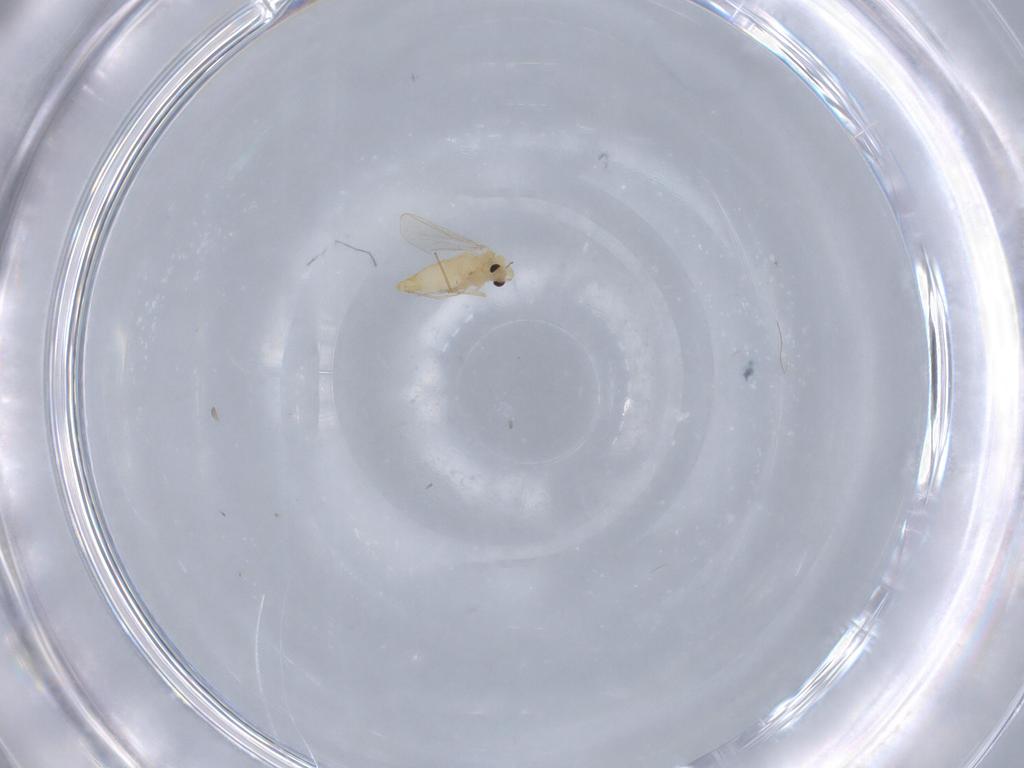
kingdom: Animalia
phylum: Arthropoda
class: Insecta
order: Diptera
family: Chironomidae
